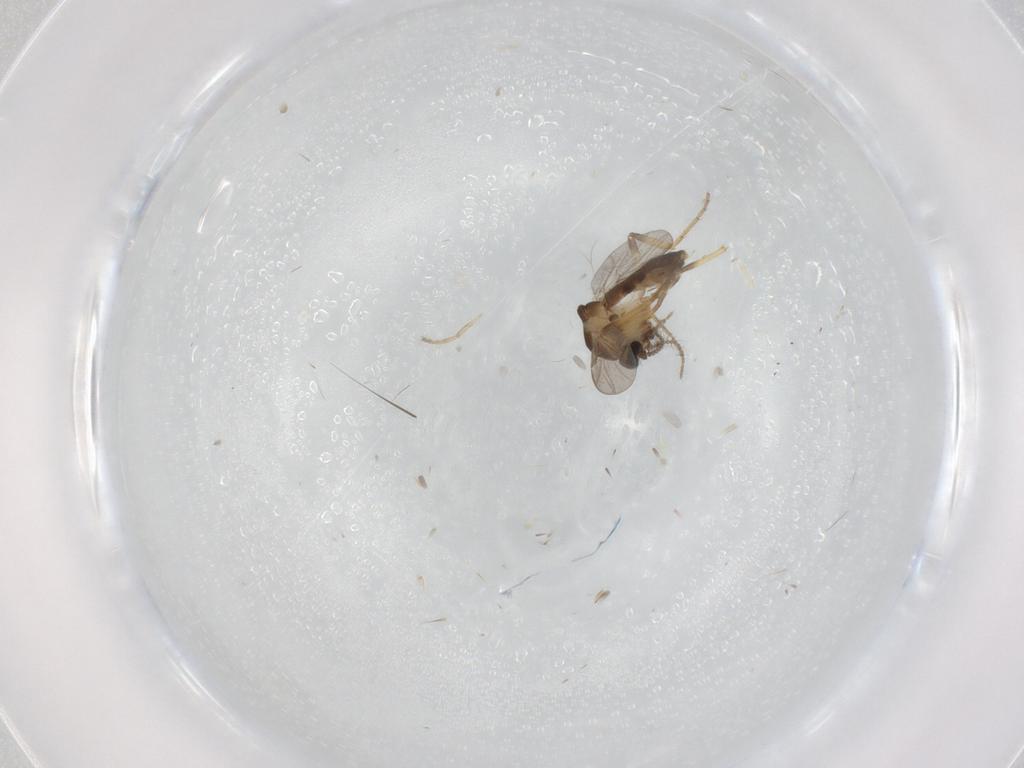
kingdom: Animalia
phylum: Arthropoda
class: Insecta
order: Diptera
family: Ceratopogonidae
